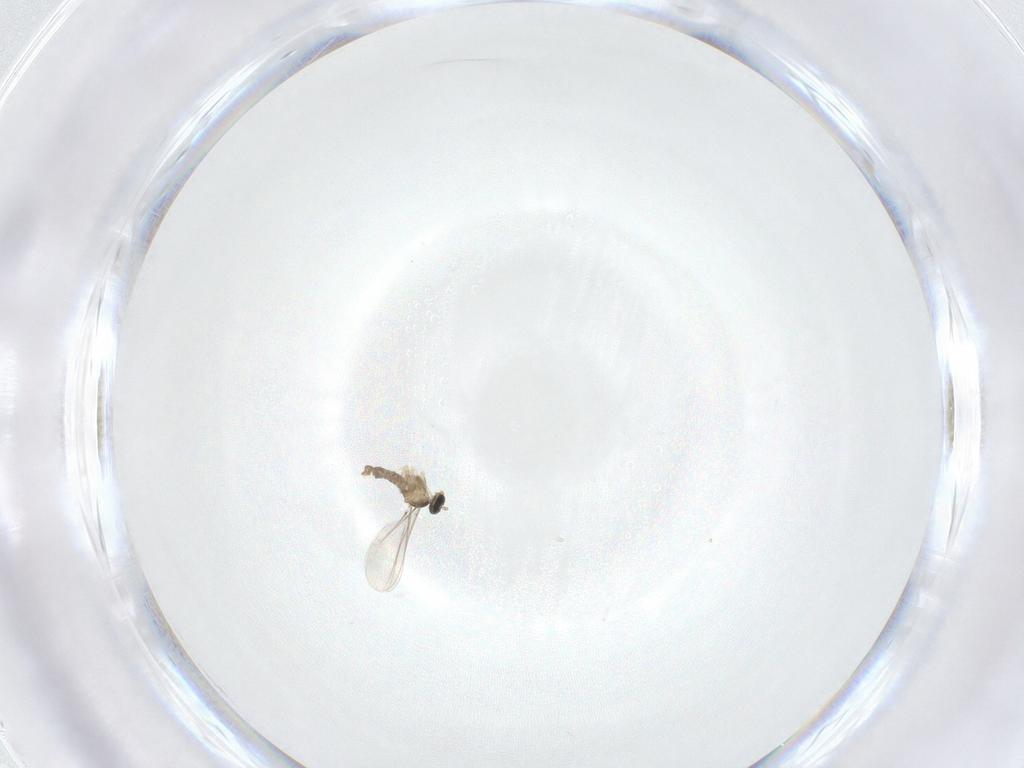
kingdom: Animalia
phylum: Arthropoda
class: Insecta
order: Diptera
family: Cecidomyiidae
